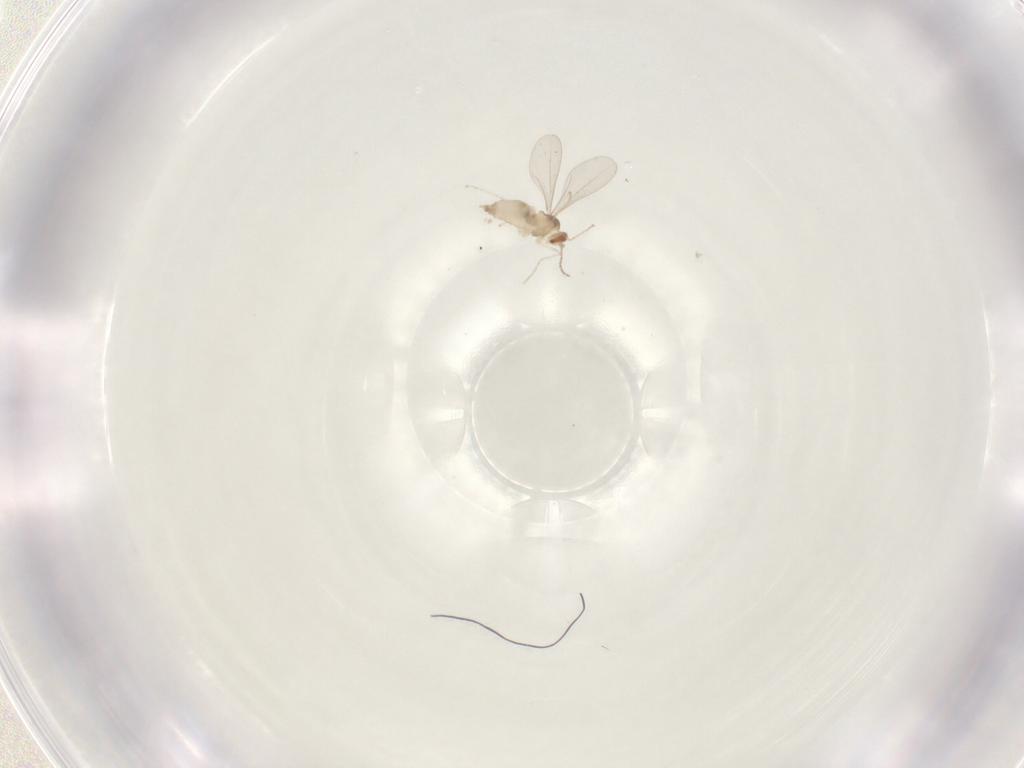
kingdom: Animalia
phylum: Arthropoda
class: Insecta
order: Diptera
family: Cecidomyiidae
